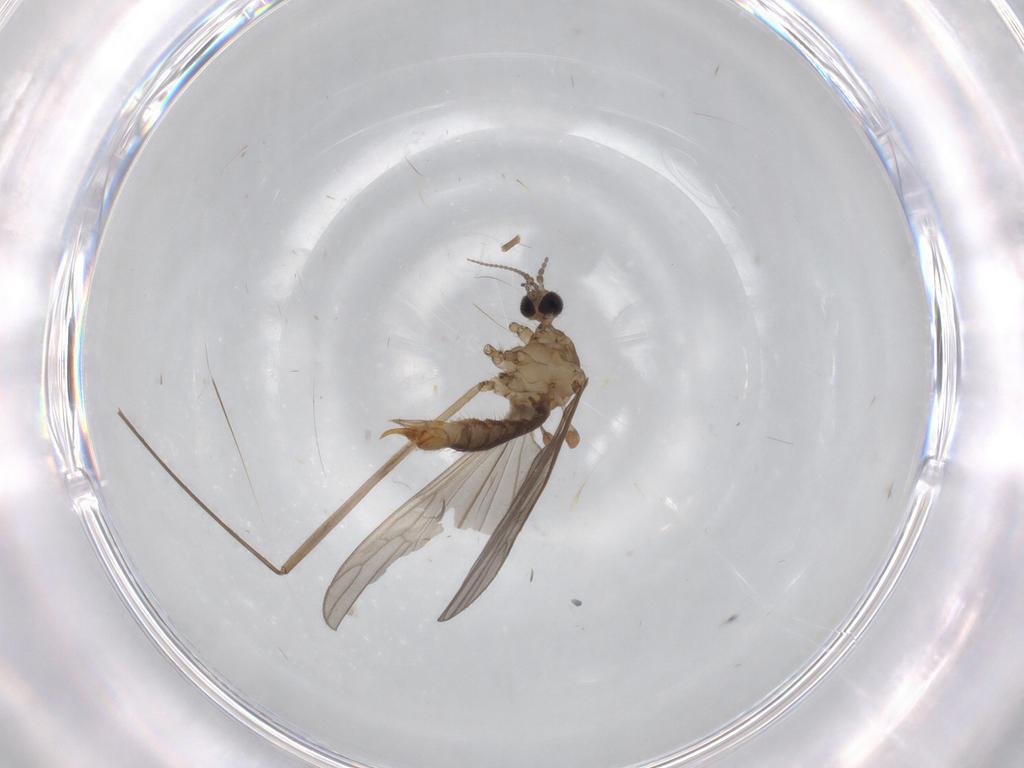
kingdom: Animalia
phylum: Arthropoda
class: Insecta
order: Diptera
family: Limoniidae
